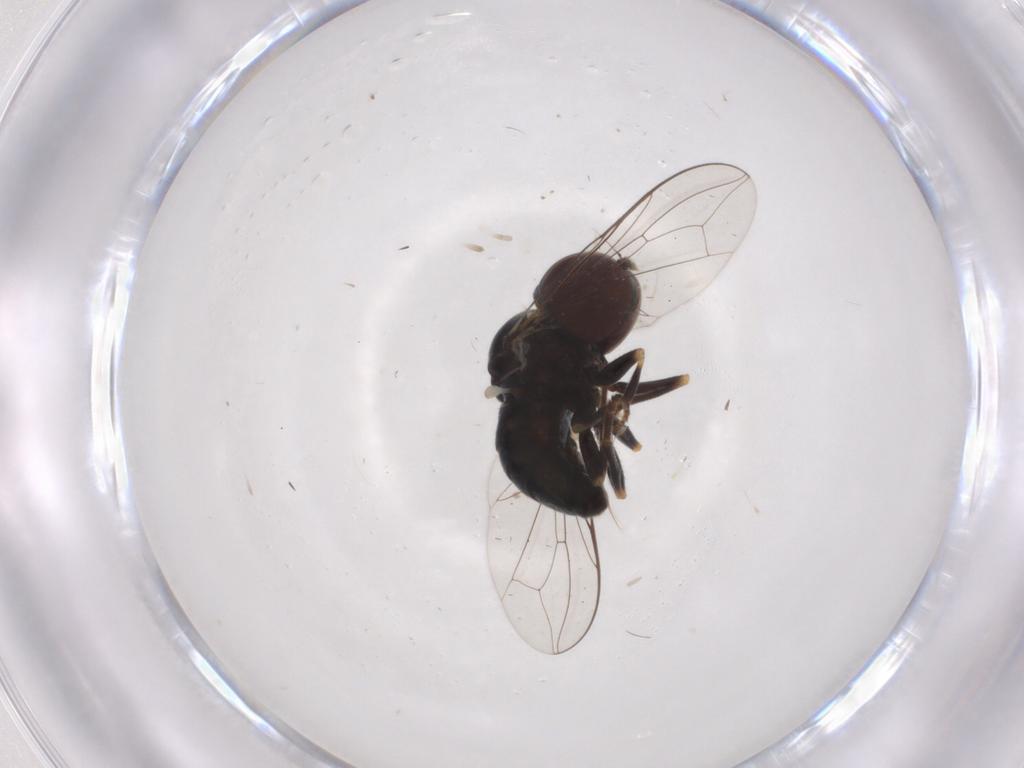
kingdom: Animalia
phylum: Arthropoda
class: Insecta
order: Diptera
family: Pipunculidae
